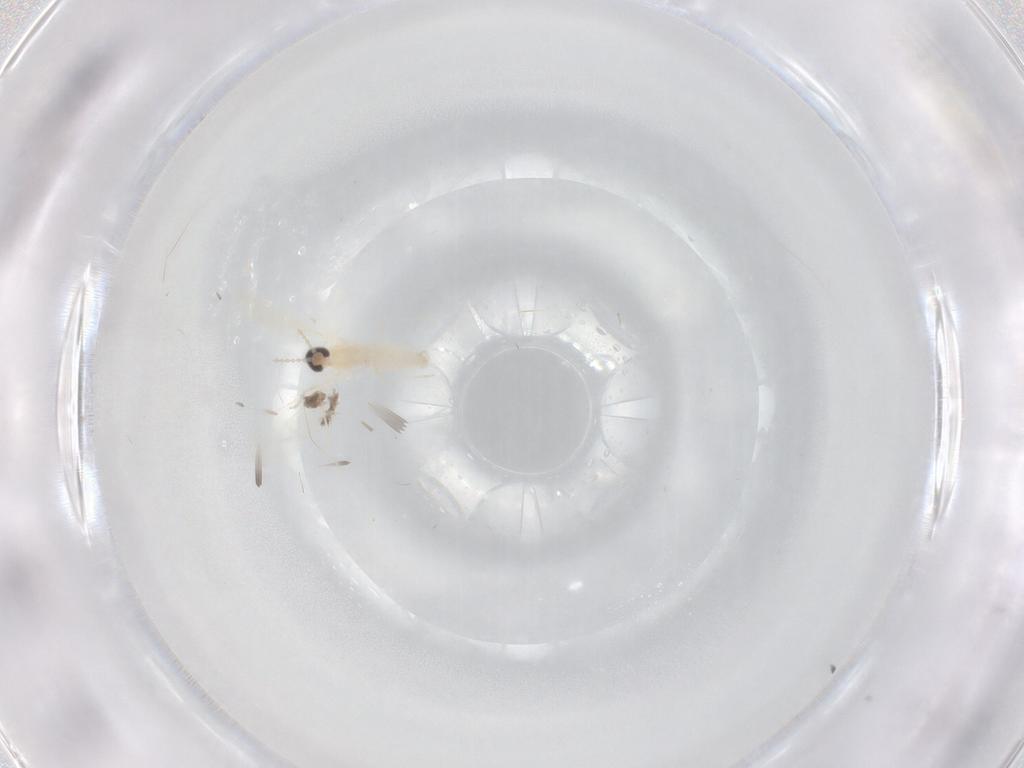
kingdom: Animalia
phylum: Arthropoda
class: Insecta
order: Diptera
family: Cecidomyiidae
